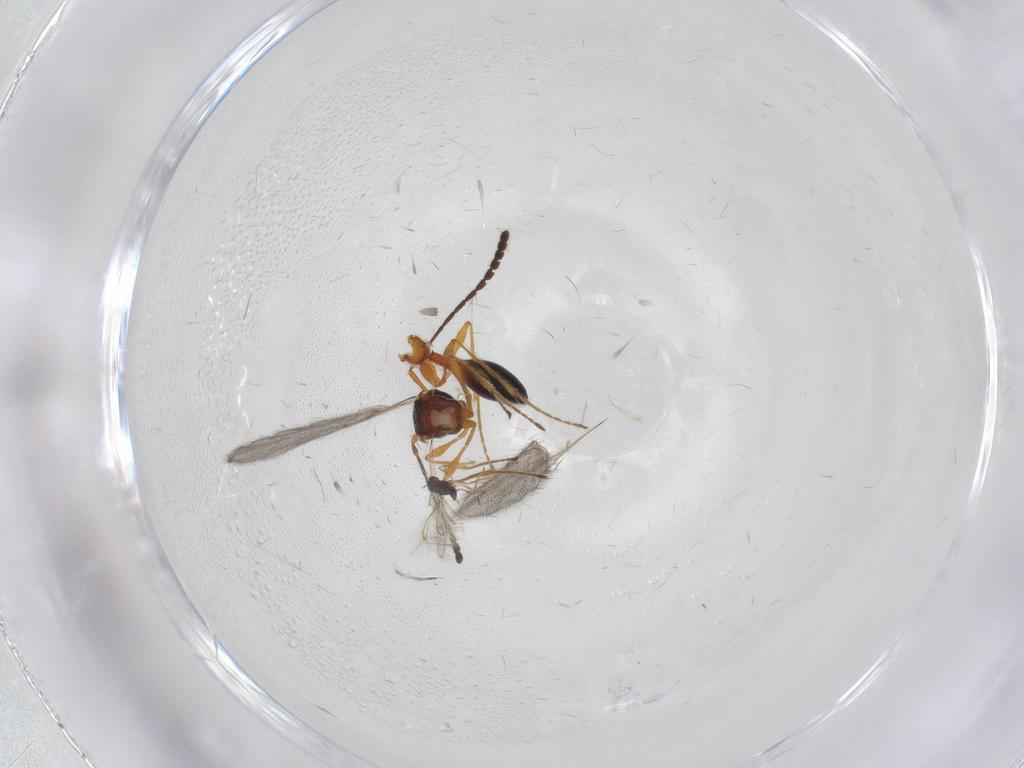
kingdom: Animalia
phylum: Arthropoda
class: Insecta
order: Hymenoptera
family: Diapriidae
